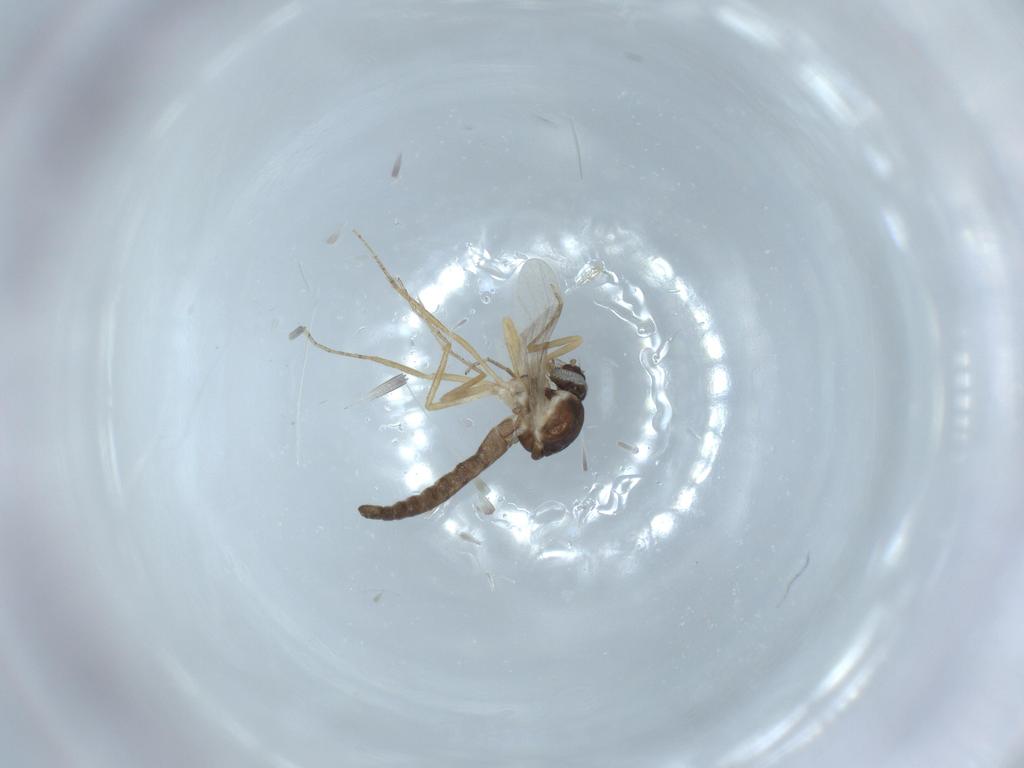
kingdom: Animalia
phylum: Arthropoda
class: Insecta
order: Diptera
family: Ceratopogonidae
